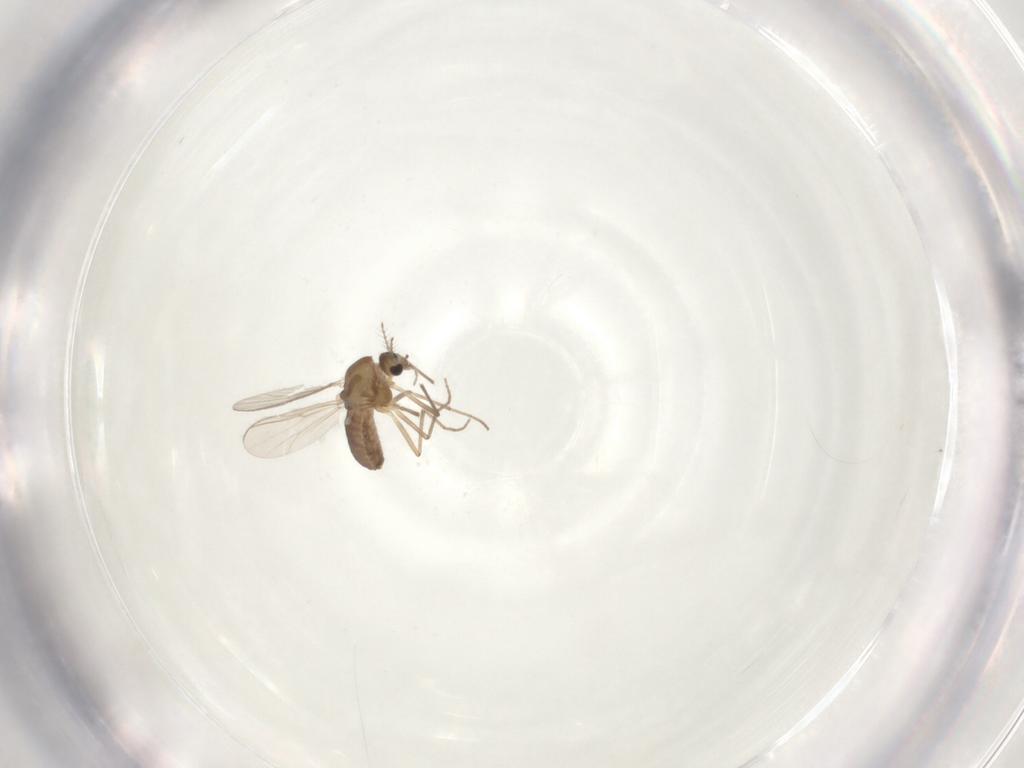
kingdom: Animalia
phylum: Arthropoda
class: Insecta
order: Diptera
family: Chironomidae
